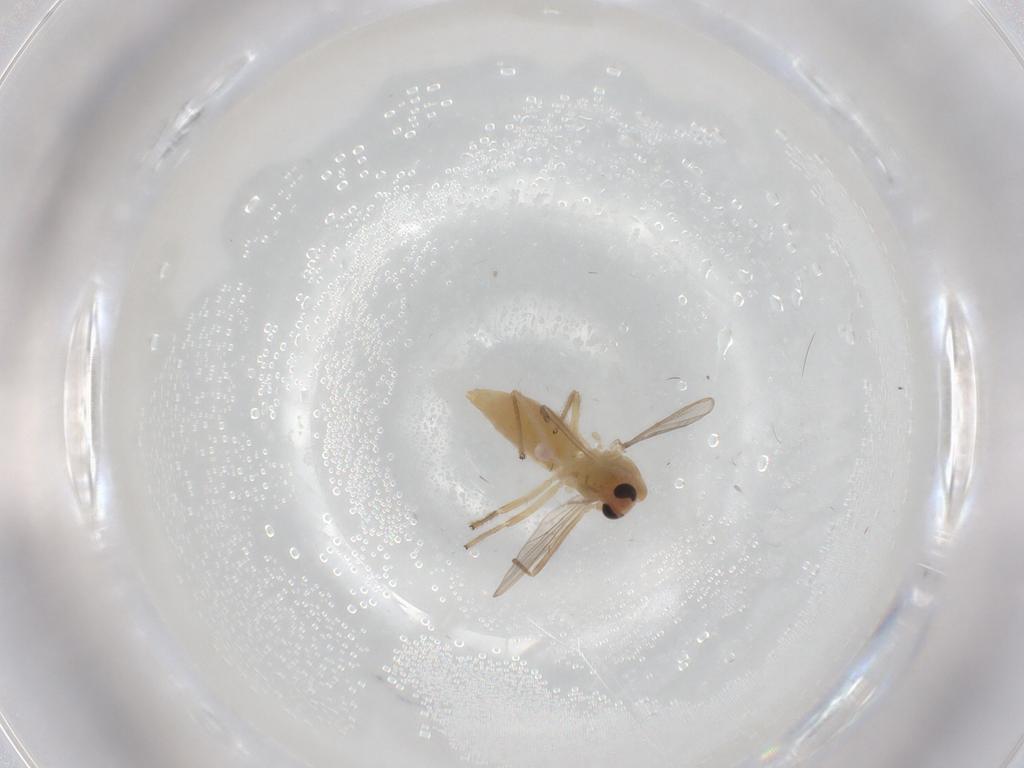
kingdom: Animalia
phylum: Arthropoda
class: Insecta
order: Diptera
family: Chironomidae
